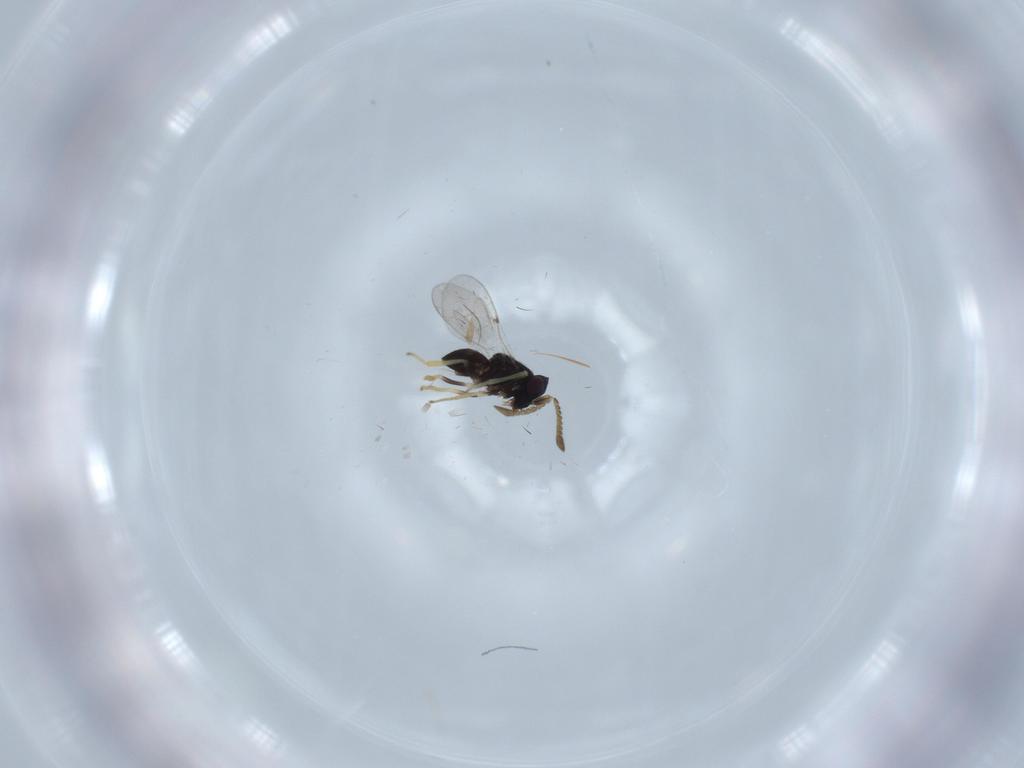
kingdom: Animalia
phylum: Arthropoda
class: Insecta
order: Hymenoptera
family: Encyrtidae
